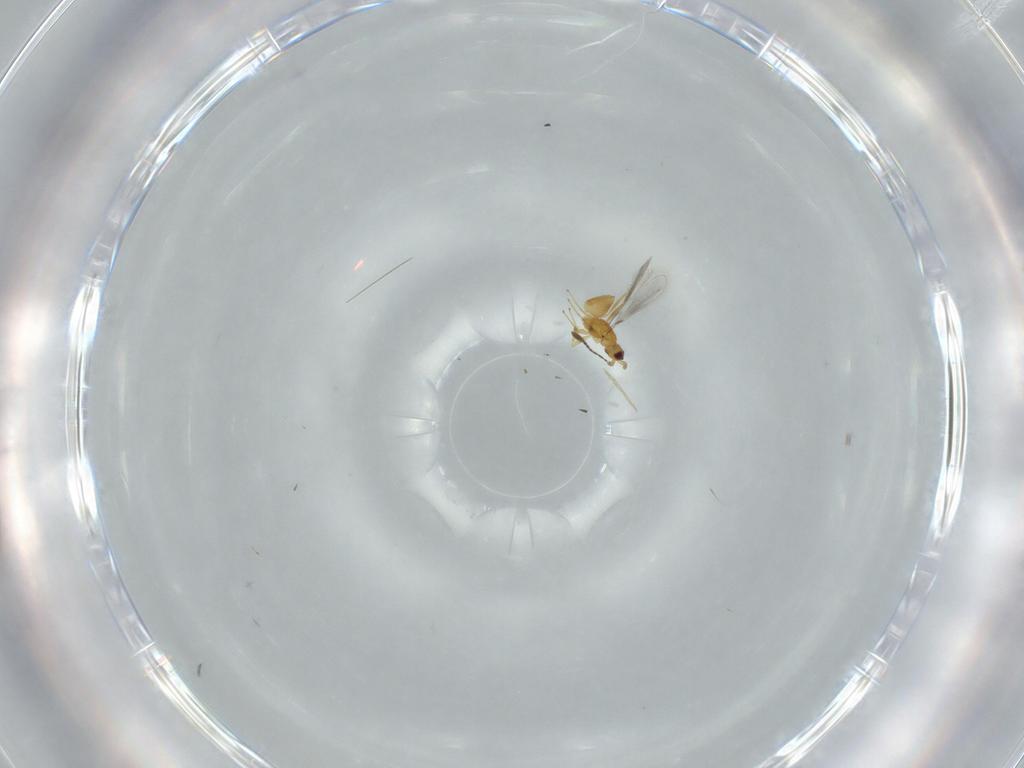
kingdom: Animalia
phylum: Arthropoda
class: Insecta
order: Hymenoptera
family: Mymaridae
